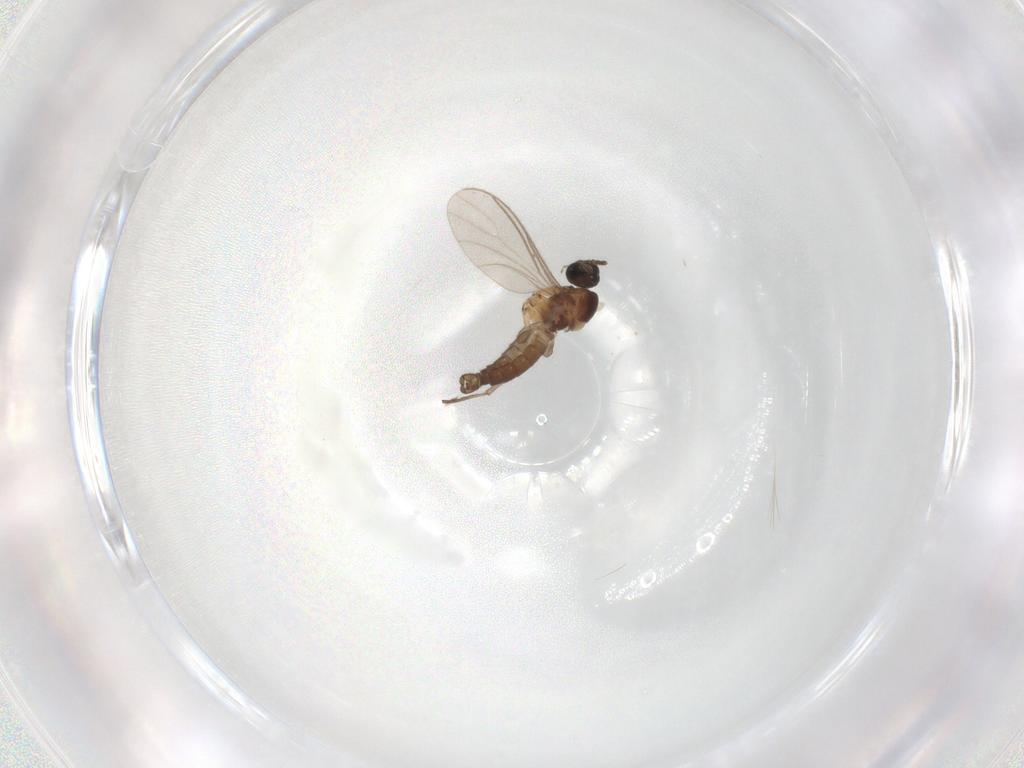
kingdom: Animalia
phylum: Arthropoda
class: Insecta
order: Diptera
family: Sciaridae
